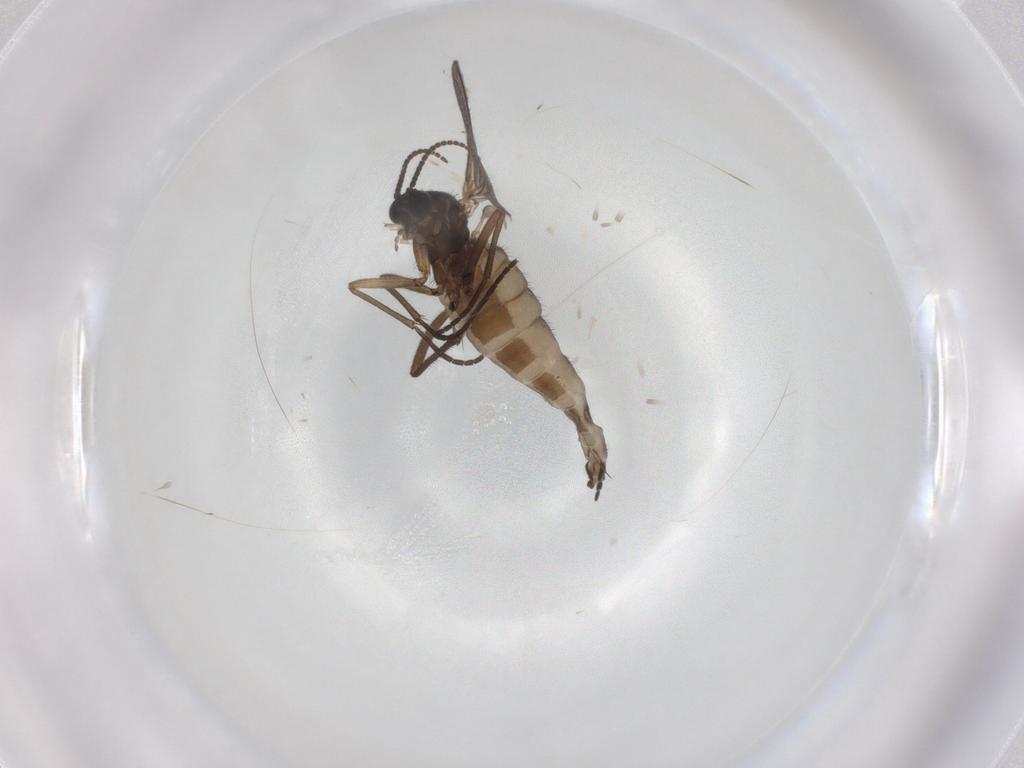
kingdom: Animalia
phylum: Arthropoda
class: Insecta
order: Diptera
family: Sciaridae
